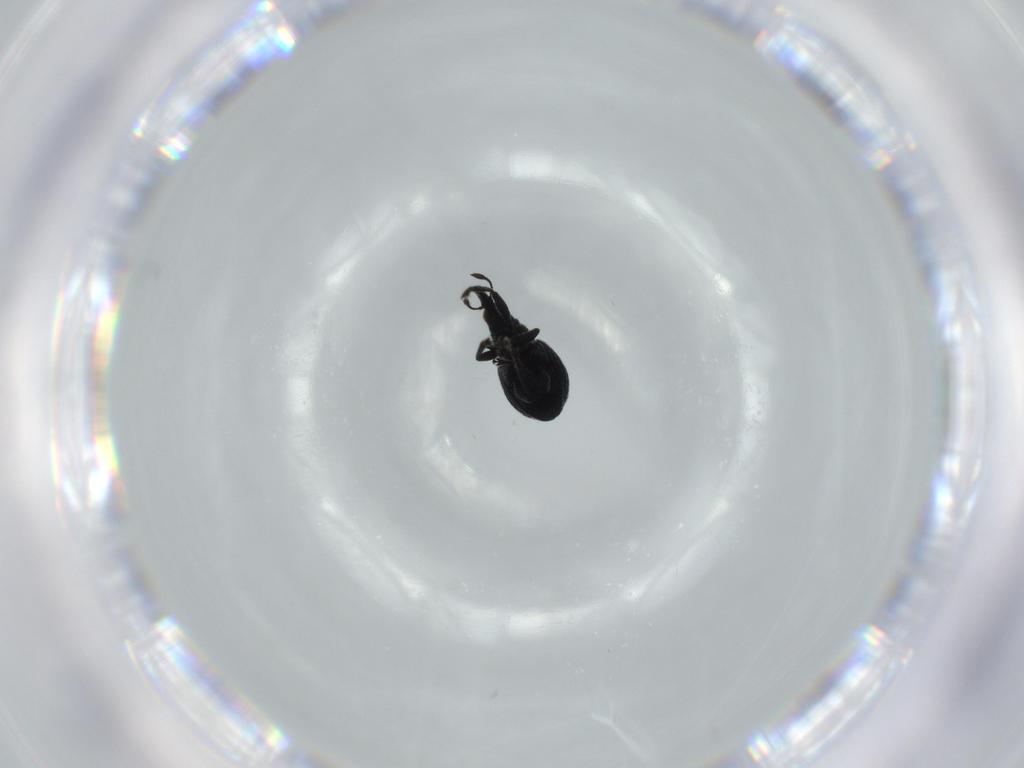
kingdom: Animalia
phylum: Arthropoda
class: Insecta
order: Coleoptera
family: Brentidae
